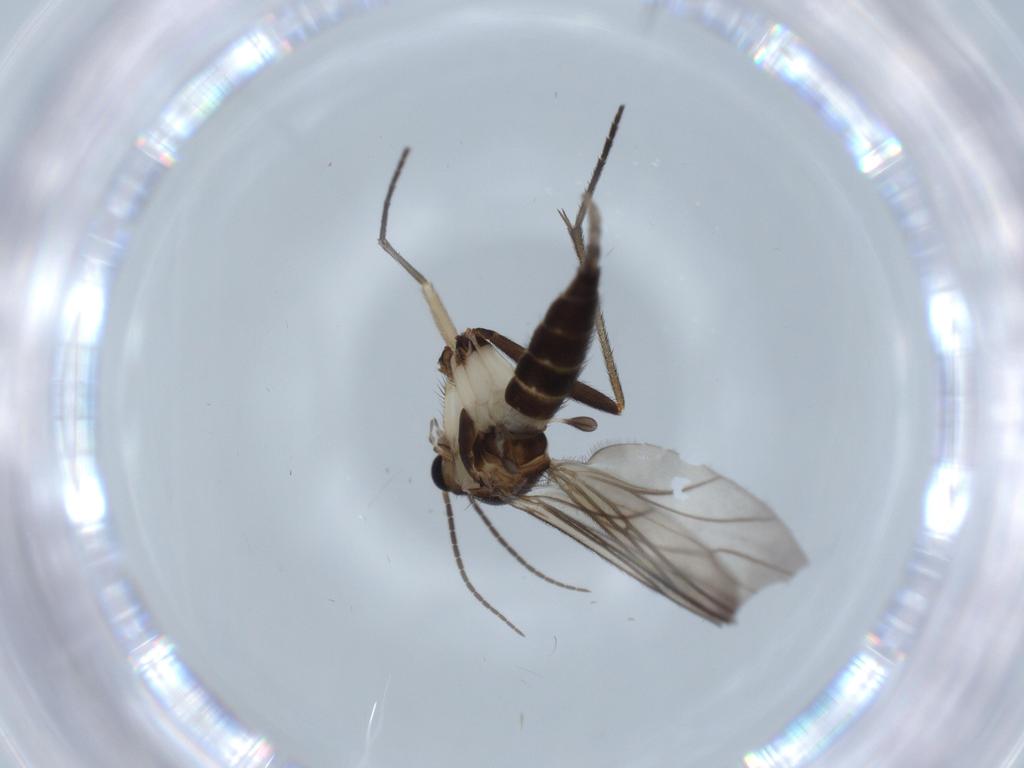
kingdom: Animalia
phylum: Arthropoda
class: Insecta
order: Diptera
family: Sciaridae
